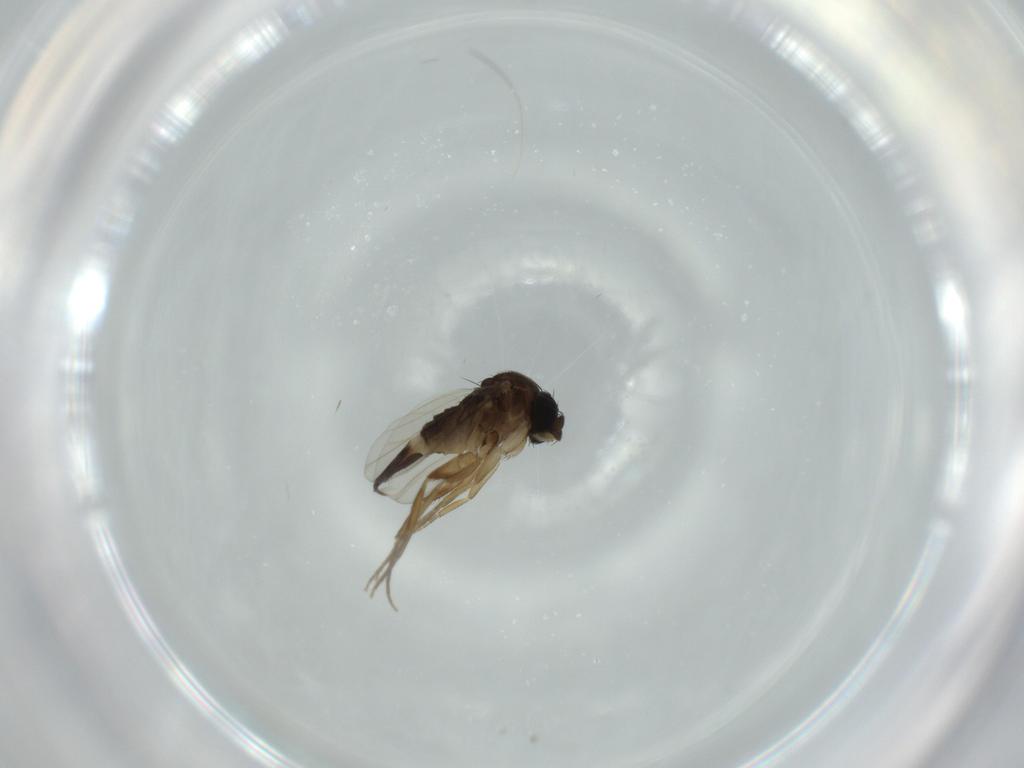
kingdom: Animalia
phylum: Arthropoda
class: Insecta
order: Diptera
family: Phoridae
